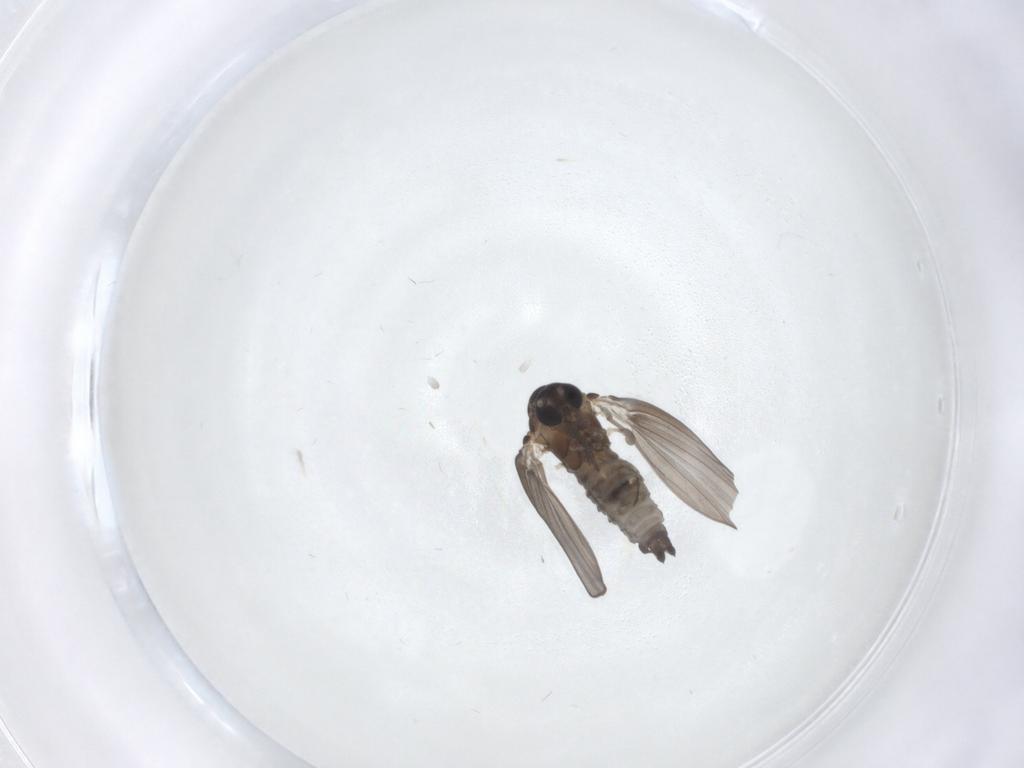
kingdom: Animalia
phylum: Arthropoda
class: Insecta
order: Diptera
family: Psychodidae
